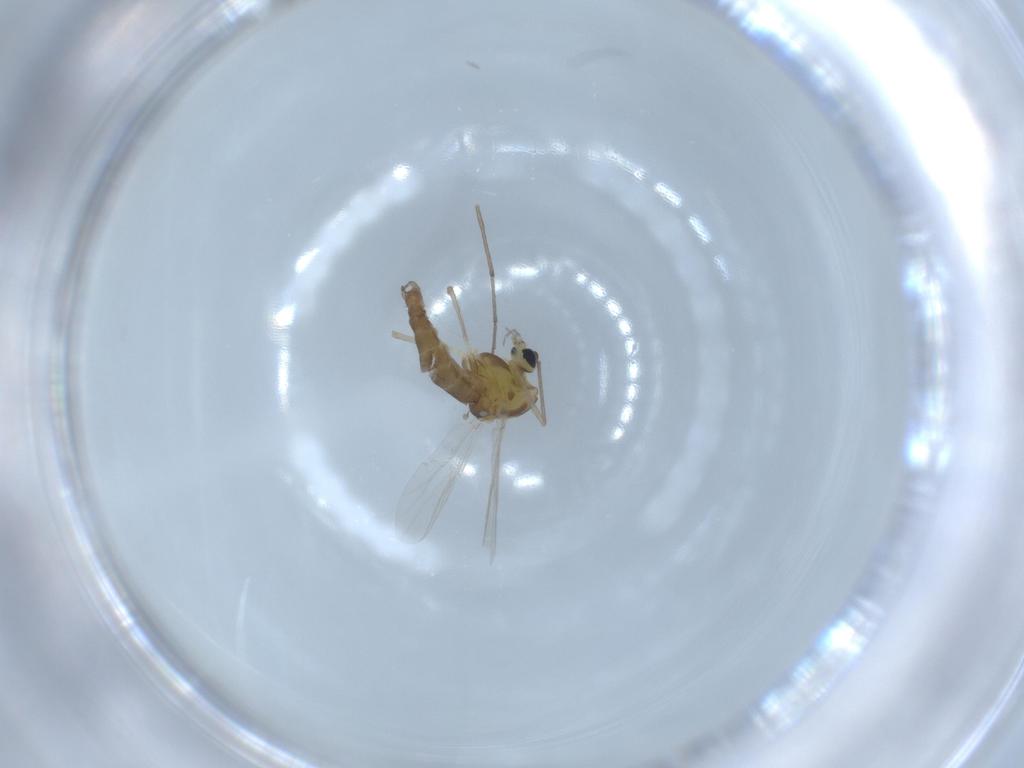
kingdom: Animalia
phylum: Arthropoda
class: Insecta
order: Diptera
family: Chironomidae
